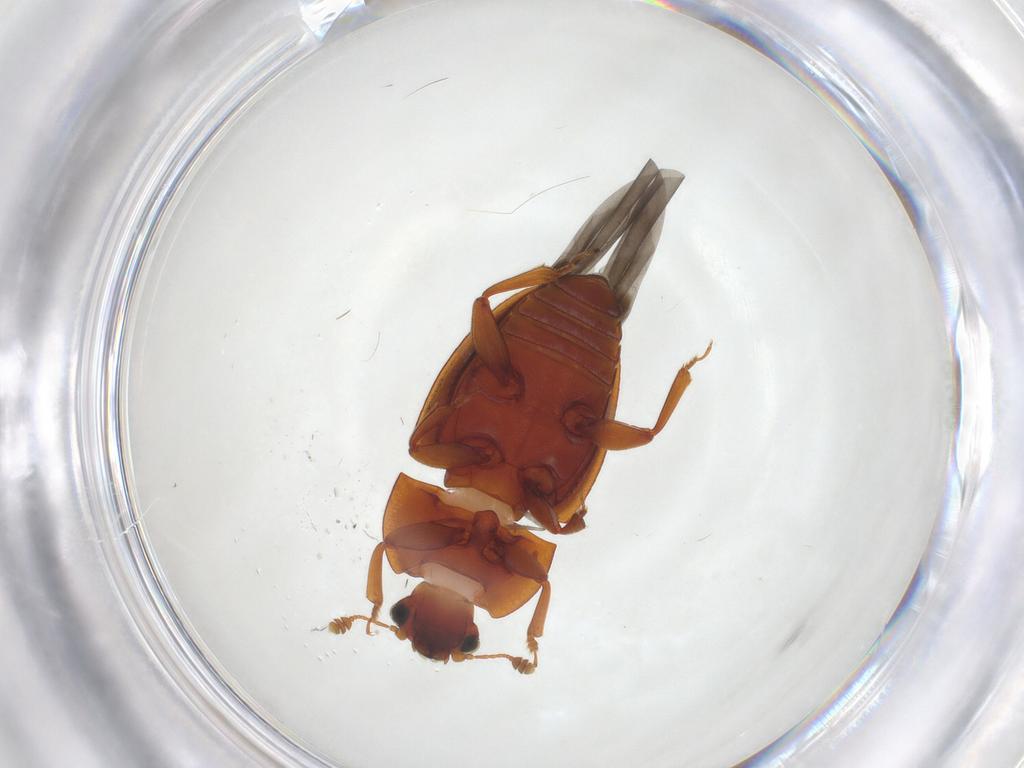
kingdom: Animalia
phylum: Arthropoda
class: Insecta
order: Coleoptera
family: Nitidulidae
